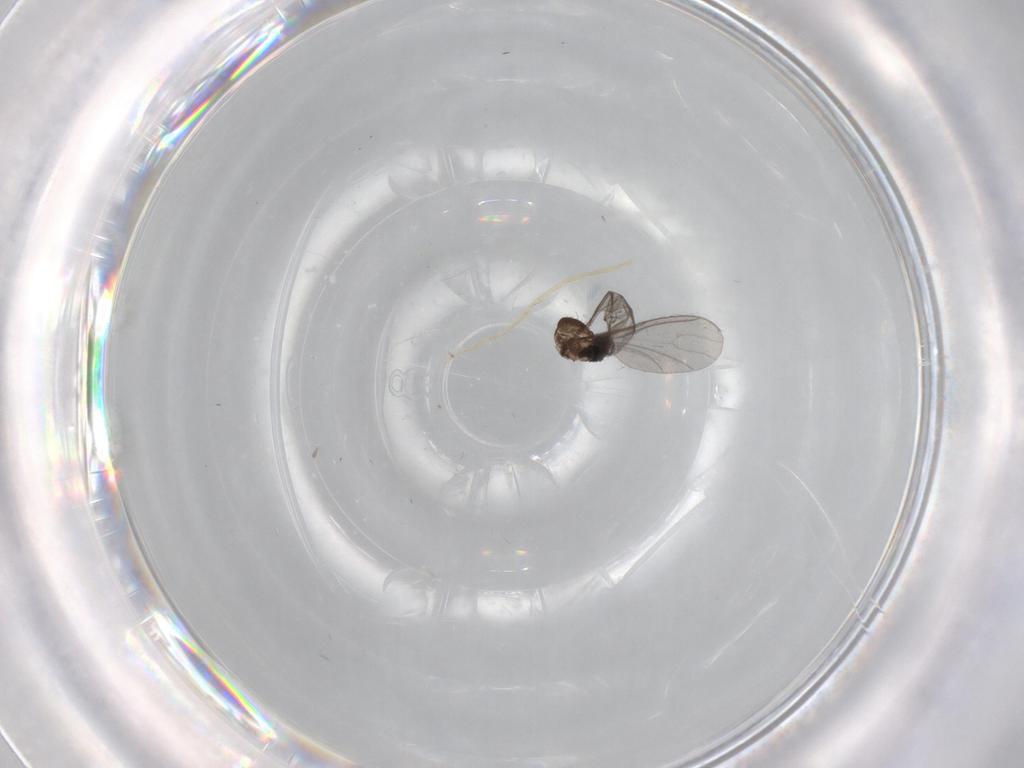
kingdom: Animalia
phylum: Arthropoda
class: Insecta
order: Diptera
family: Sciaridae
